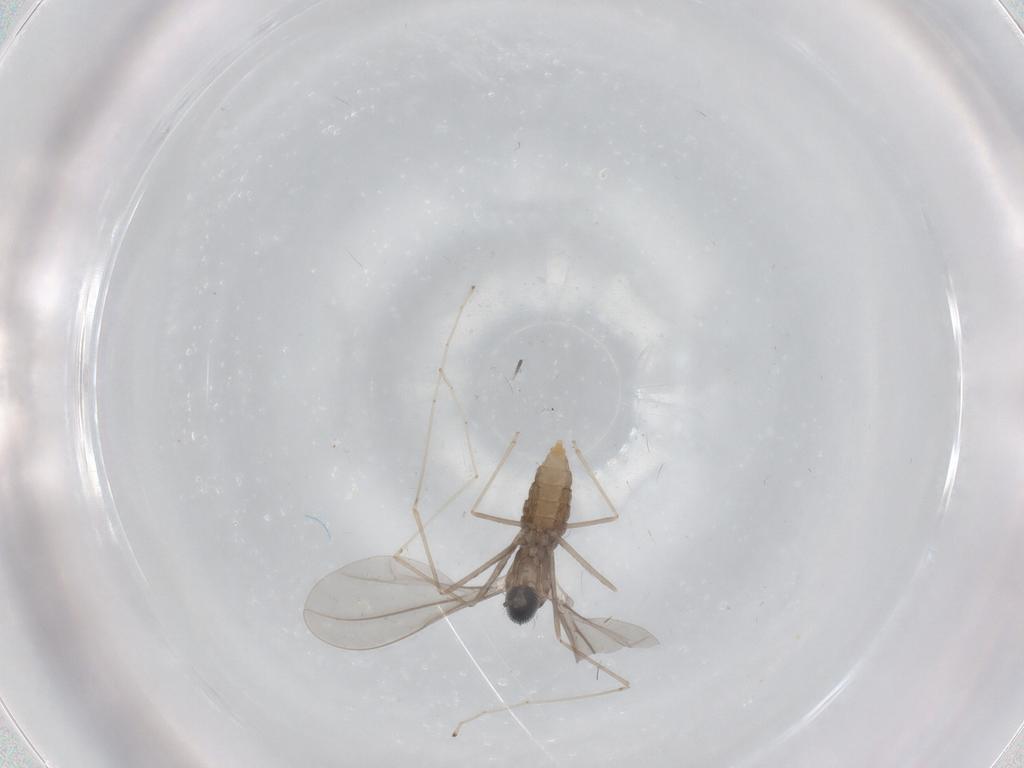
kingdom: Animalia
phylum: Arthropoda
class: Insecta
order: Diptera
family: Cecidomyiidae
